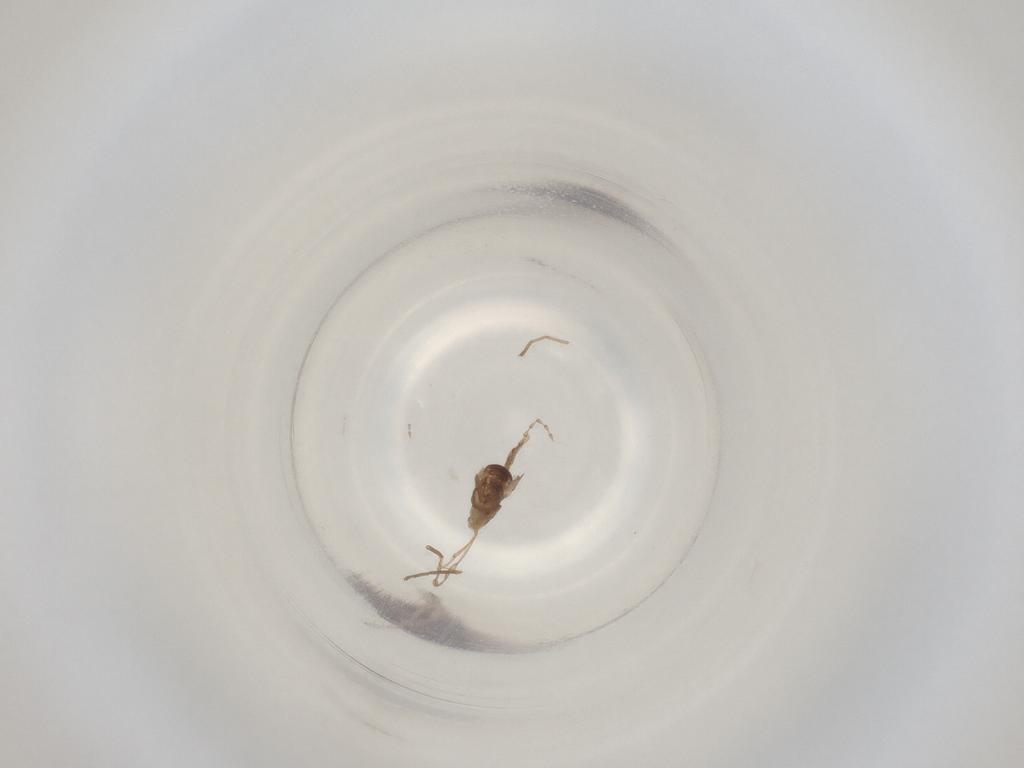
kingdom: Animalia
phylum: Arthropoda
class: Insecta
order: Diptera
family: Cecidomyiidae
